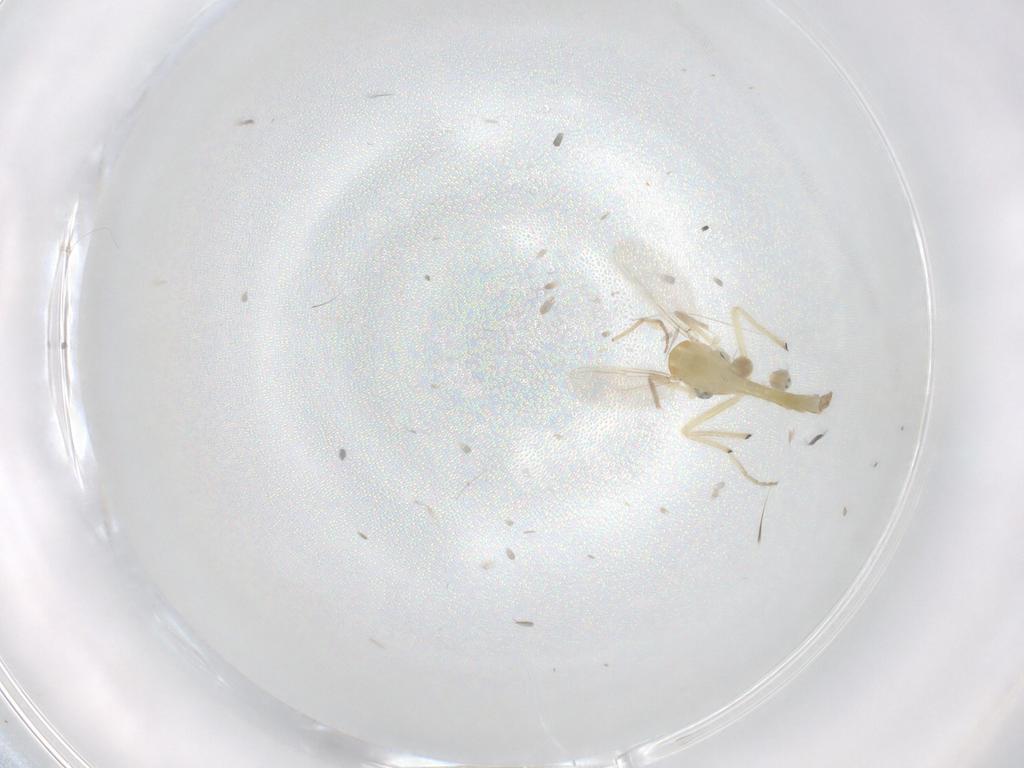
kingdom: Animalia
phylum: Arthropoda
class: Insecta
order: Diptera
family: Chironomidae
